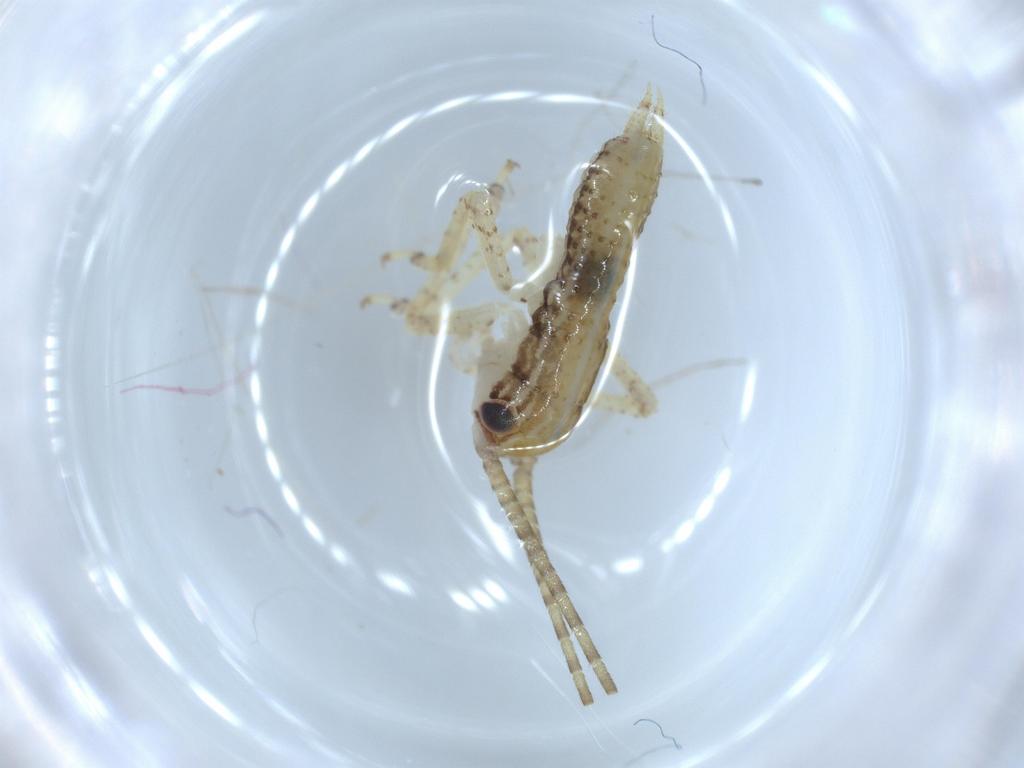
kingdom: Animalia
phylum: Arthropoda
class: Insecta
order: Orthoptera
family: Gryllidae
